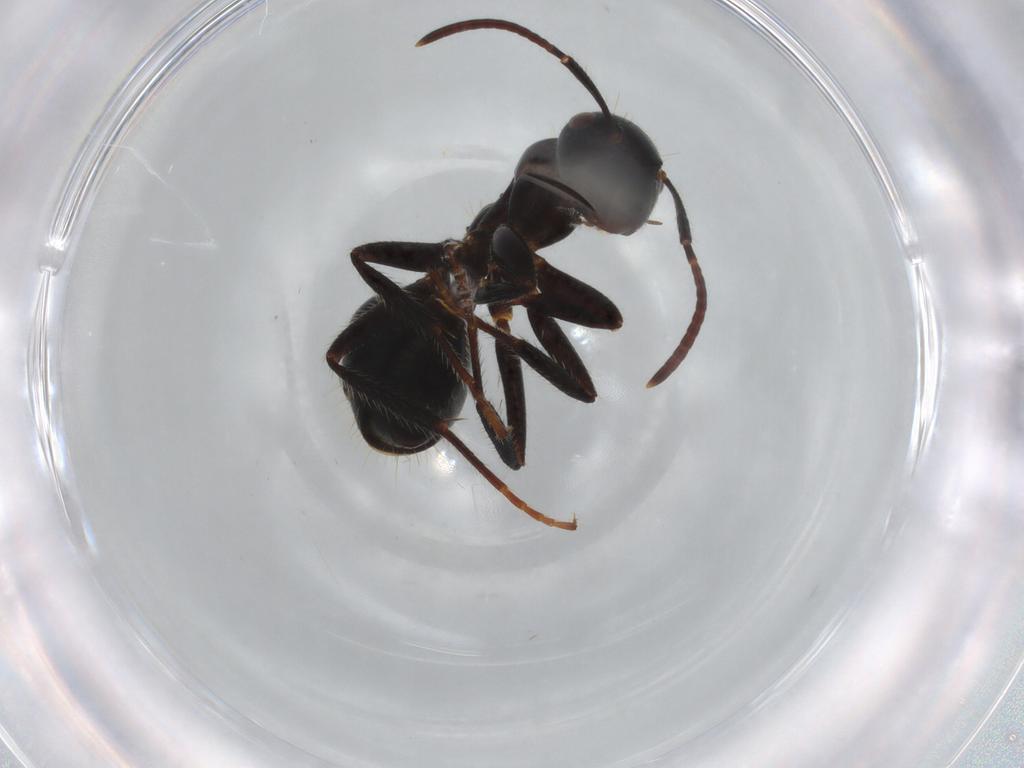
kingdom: Animalia
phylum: Arthropoda
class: Insecta
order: Hymenoptera
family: Formicidae
